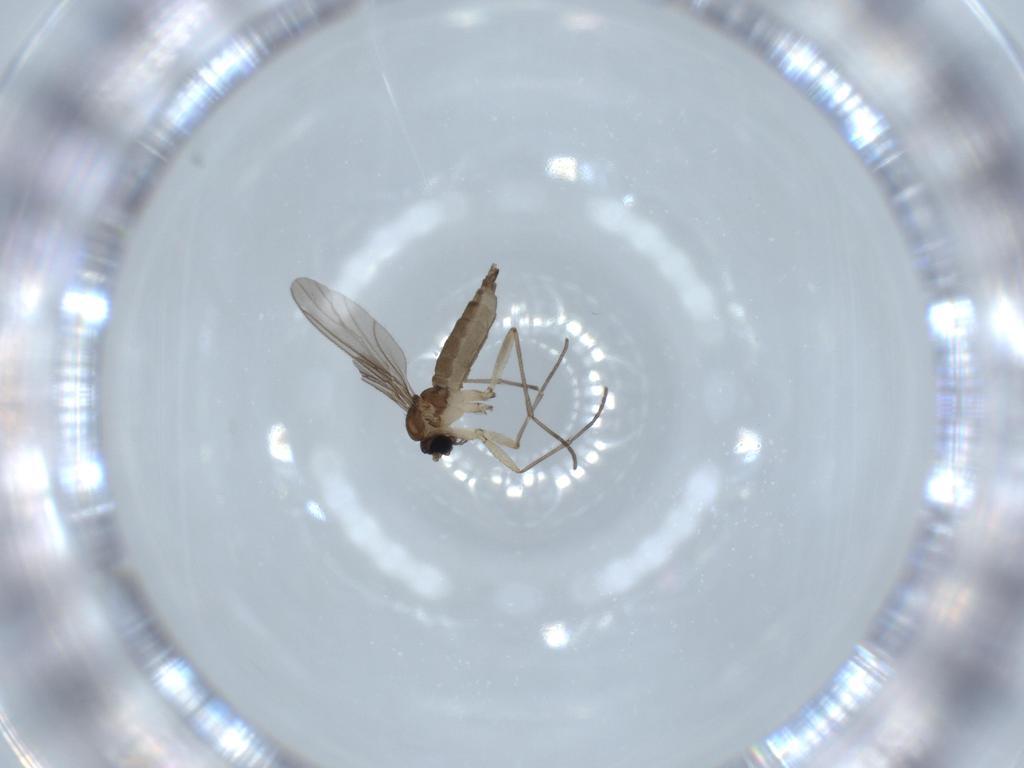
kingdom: Animalia
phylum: Arthropoda
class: Insecta
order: Diptera
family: Sciaridae
